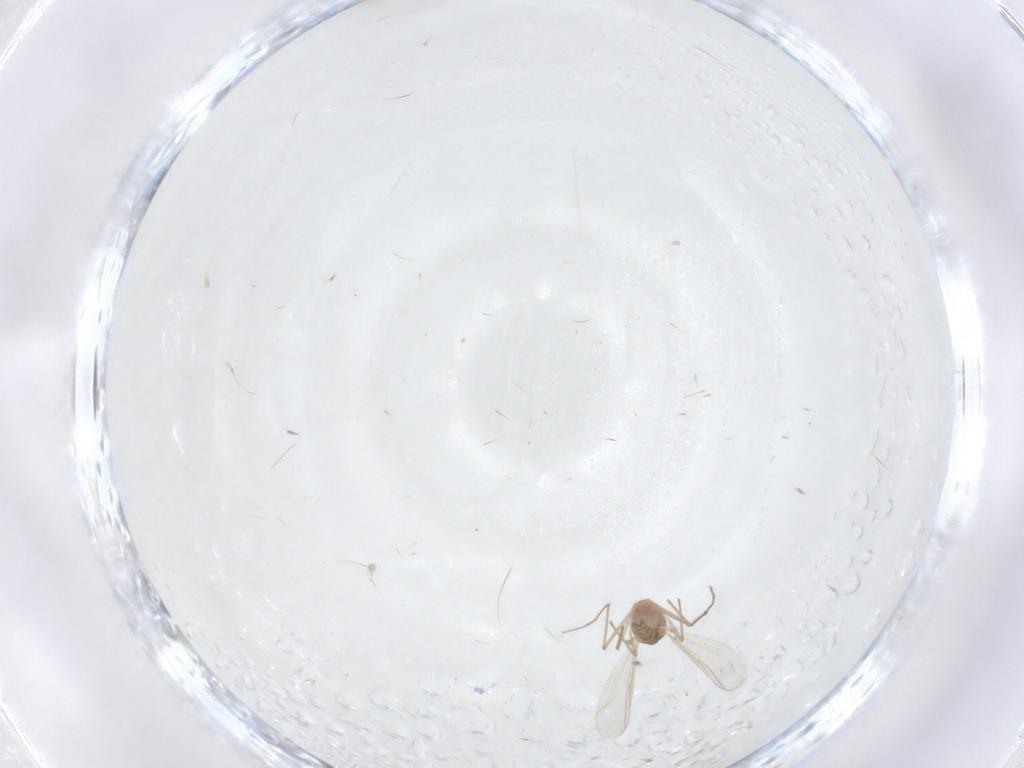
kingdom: Animalia
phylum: Arthropoda
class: Insecta
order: Diptera
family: Chironomidae
